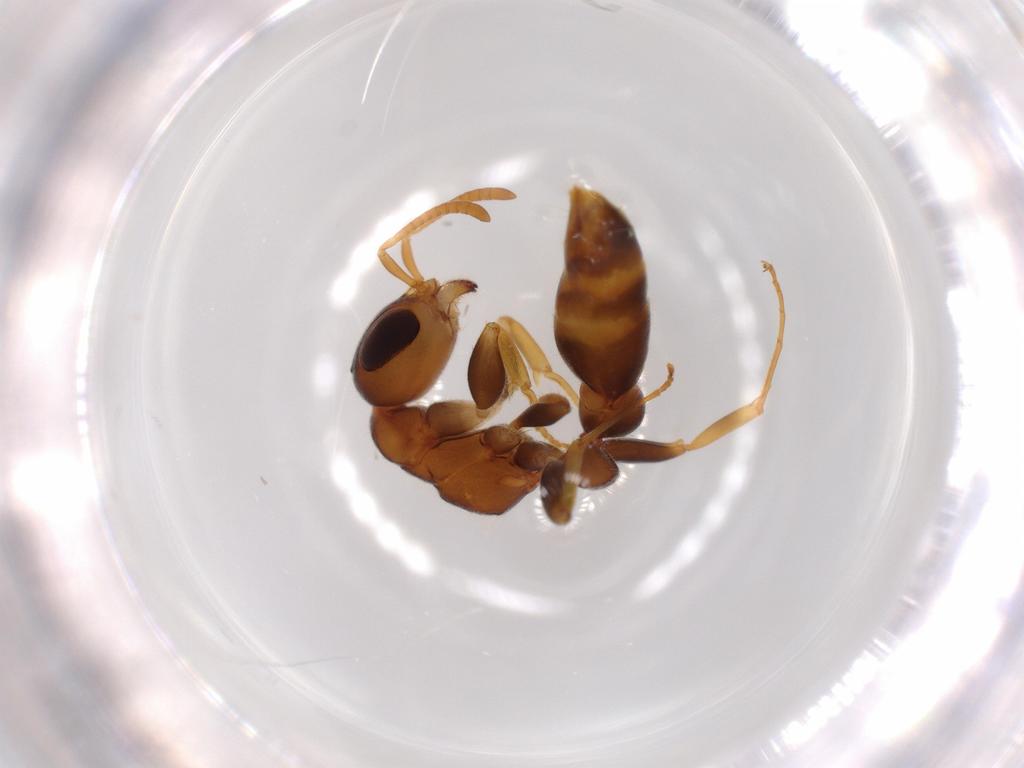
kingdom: Animalia
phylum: Arthropoda
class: Insecta
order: Hymenoptera
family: Formicidae
